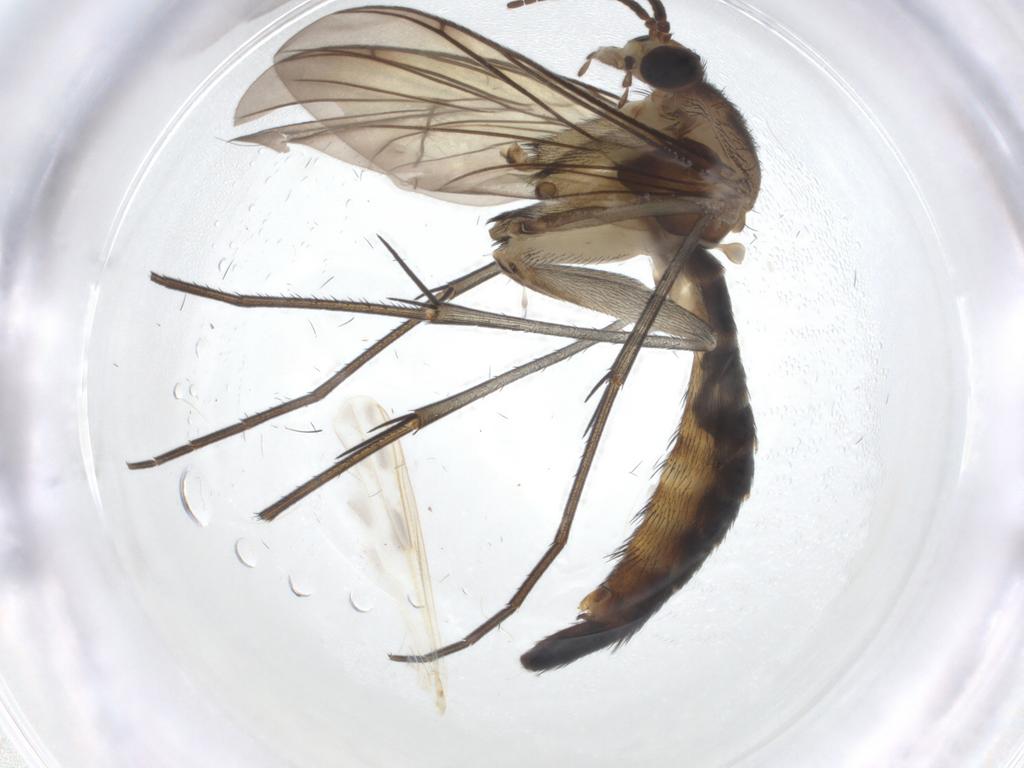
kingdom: Animalia
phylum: Arthropoda
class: Insecta
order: Diptera
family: Keroplatidae
